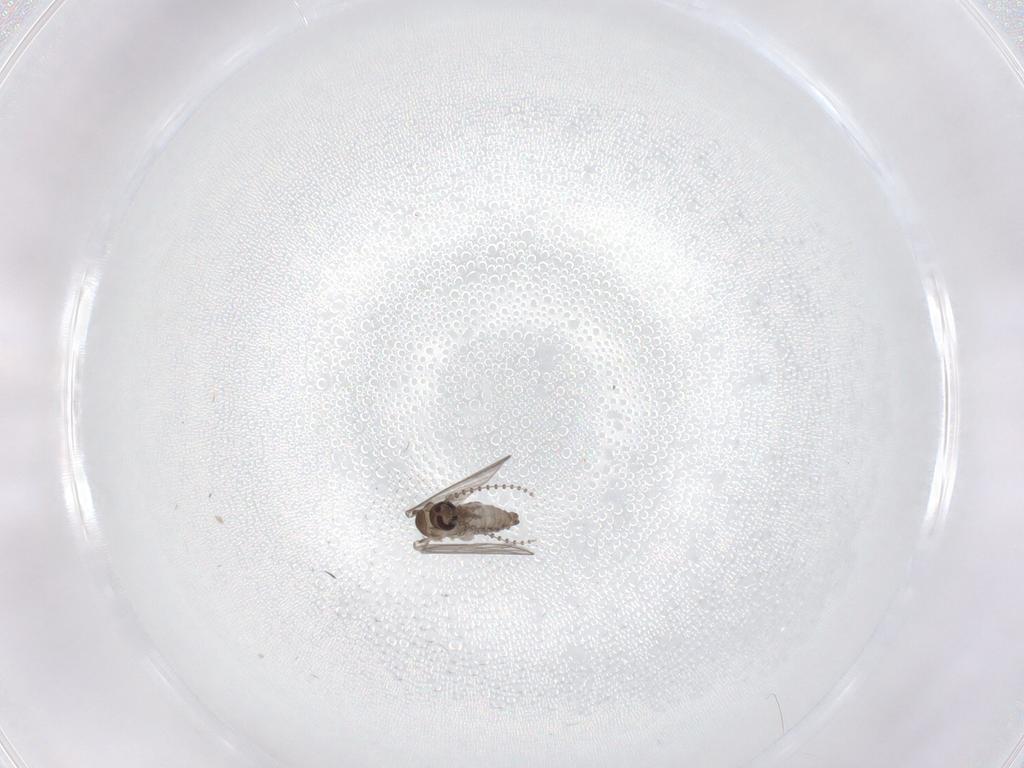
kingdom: Animalia
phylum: Arthropoda
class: Insecta
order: Diptera
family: Psychodidae
